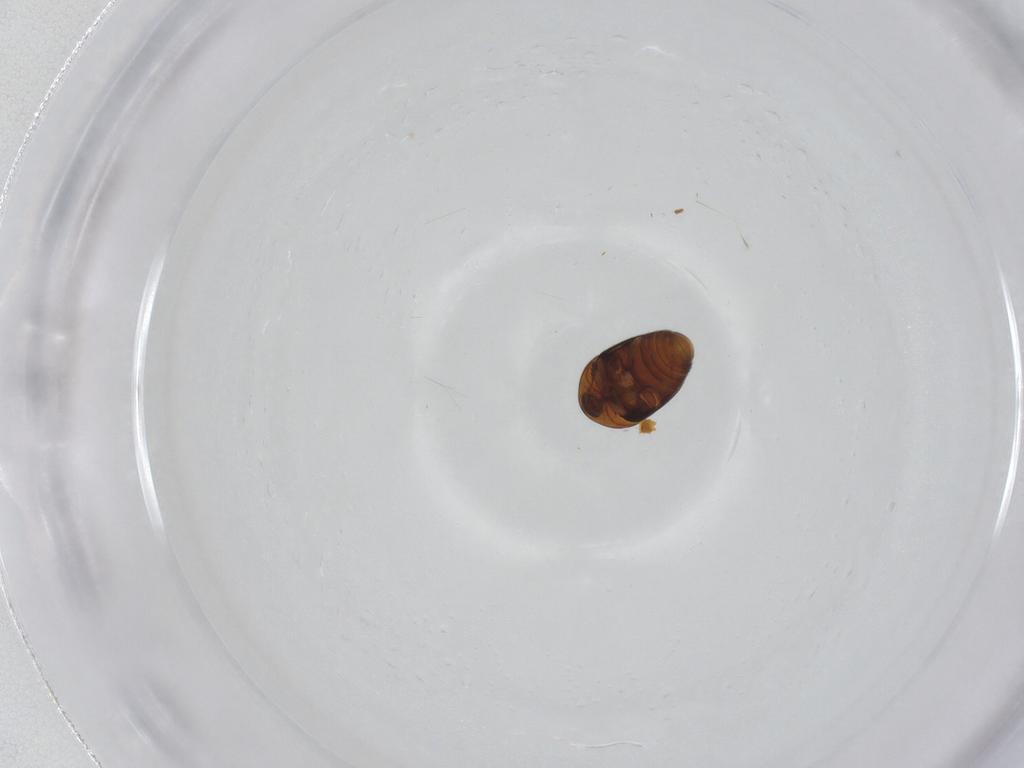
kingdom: Animalia
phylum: Arthropoda
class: Insecta
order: Coleoptera
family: Corylophidae
